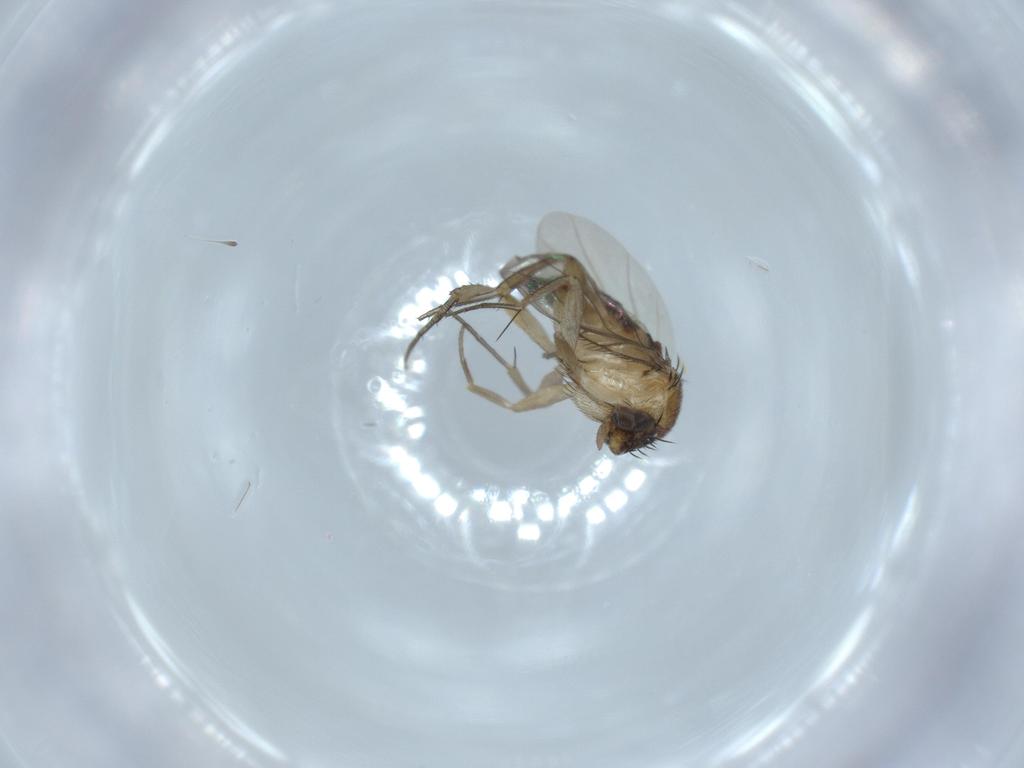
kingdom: Animalia
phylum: Arthropoda
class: Insecta
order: Diptera
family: Phoridae
